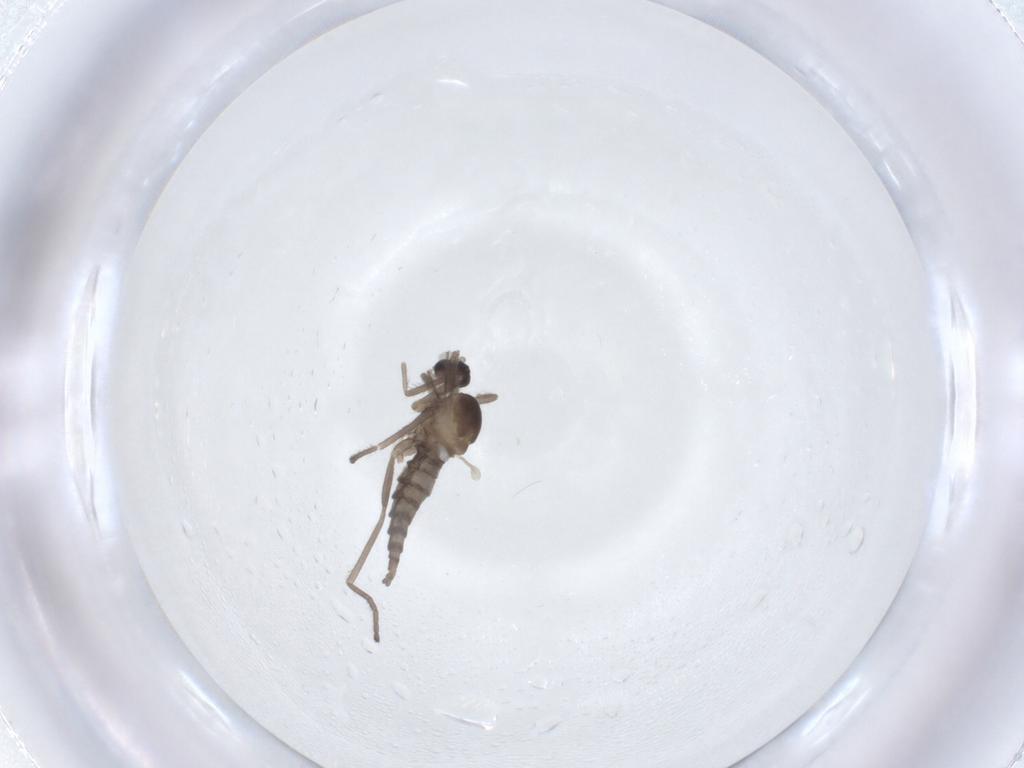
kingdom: Animalia
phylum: Arthropoda
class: Insecta
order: Diptera
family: Cecidomyiidae
